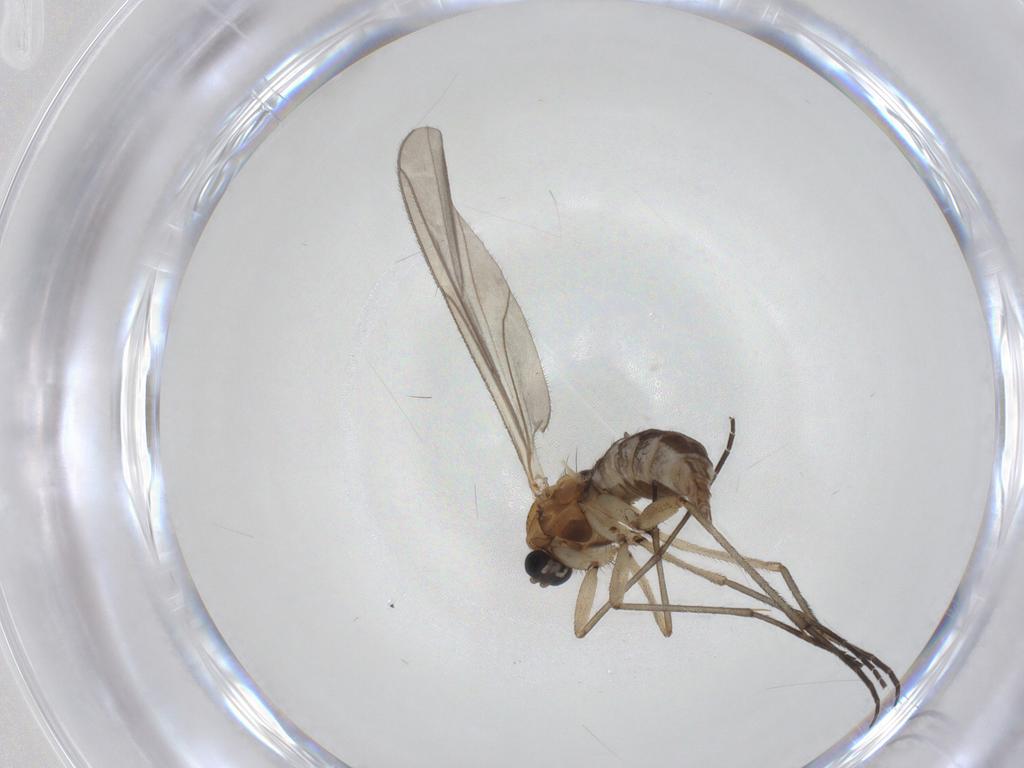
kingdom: Animalia
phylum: Arthropoda
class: Insecta
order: Diptera
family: Sciaridae
